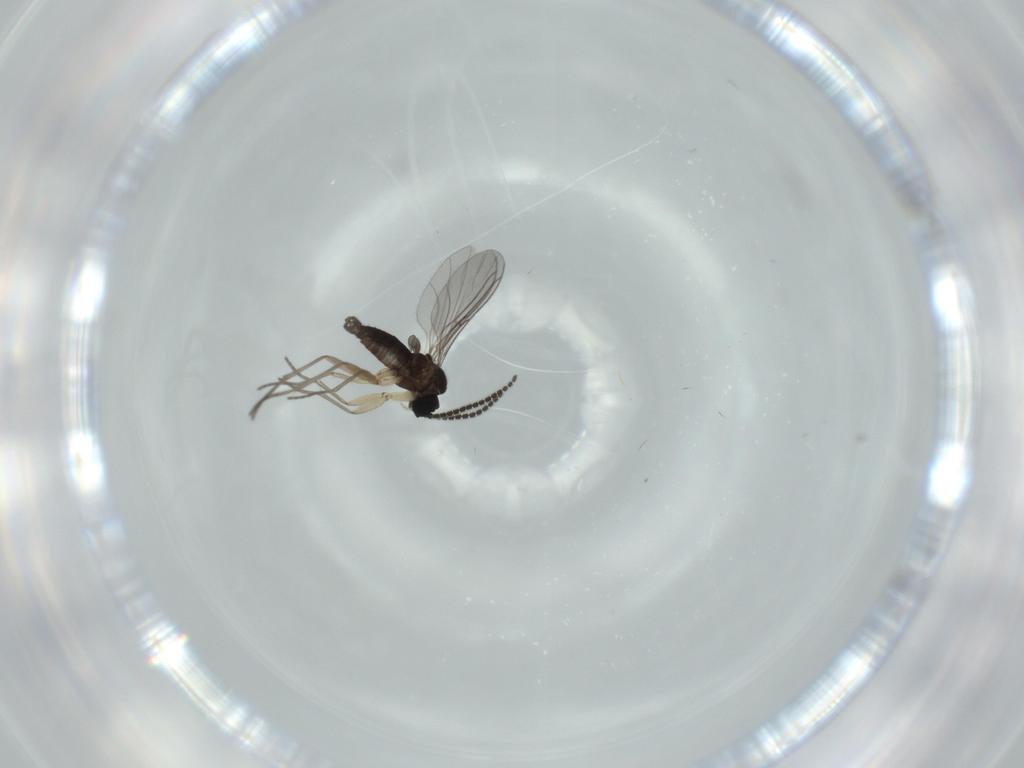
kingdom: Animalia
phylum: Arthropoda
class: Insecta
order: Diptera
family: Sciaridae
